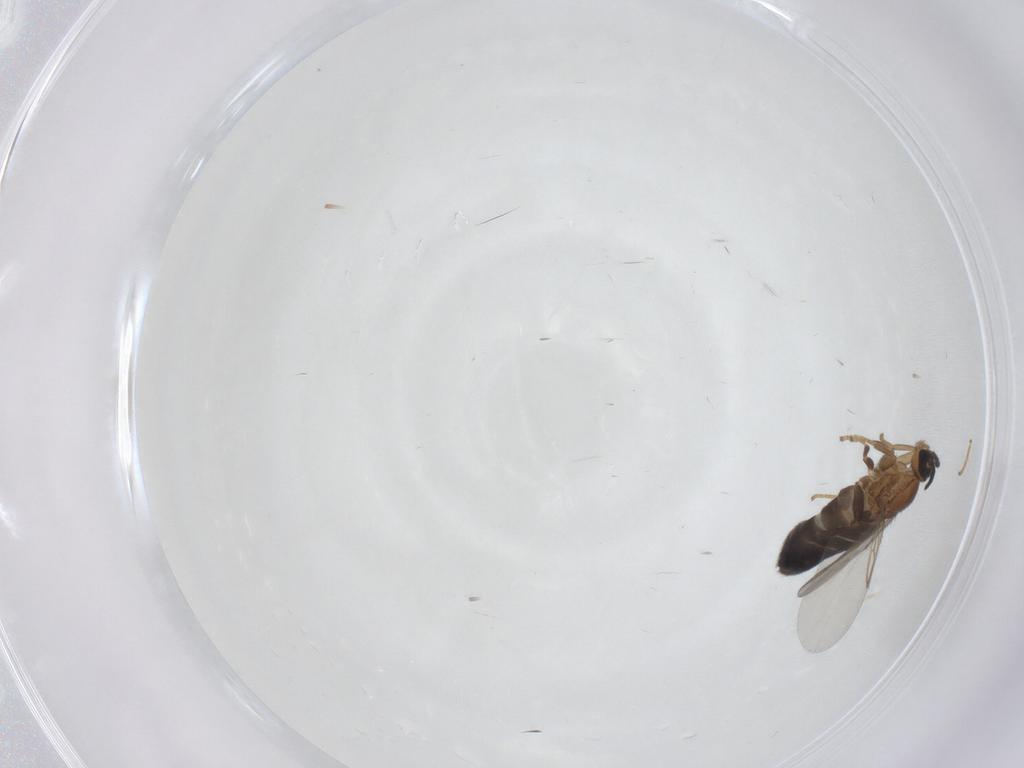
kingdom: Animalia
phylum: Arthropoda
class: Insecta
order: Diptera
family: Scatopsidae
